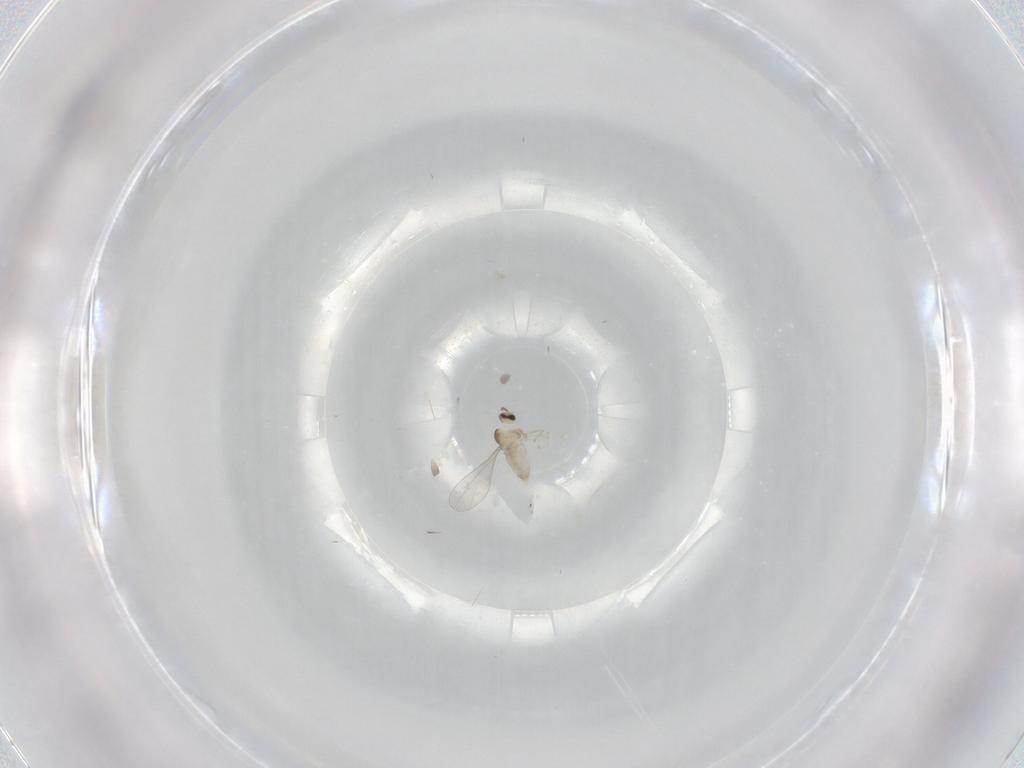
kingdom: Animalia
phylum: Arthropoda
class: Insecta
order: Diptera
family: Cecidomyiidae
